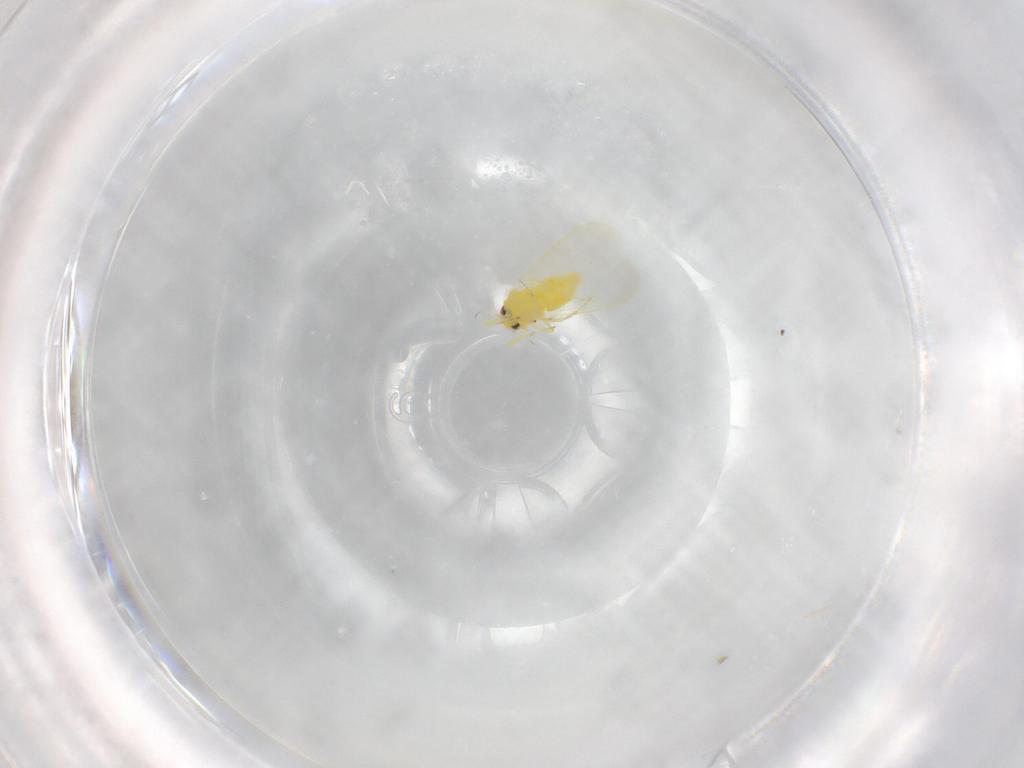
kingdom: Animalia
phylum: Arthropoda
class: Insecta
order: Hemiptera
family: Aleyrodidae
